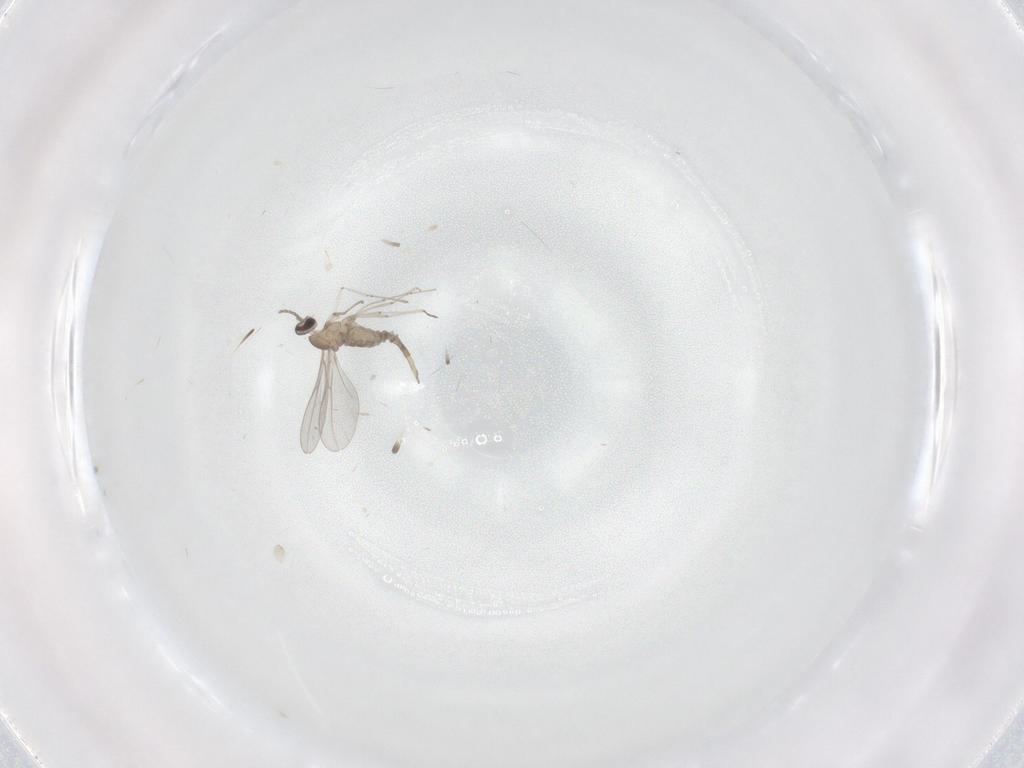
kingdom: Animalia
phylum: Arthropoda
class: Insecta
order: Diptera
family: Cecidomyiidae
